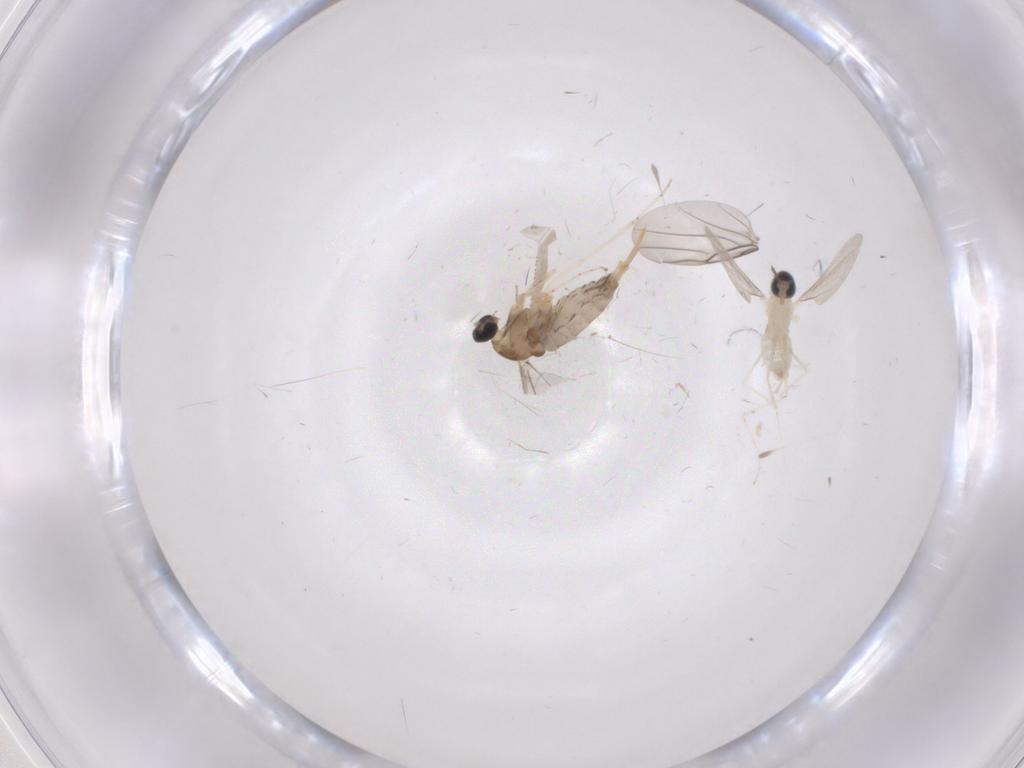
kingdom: Animalia
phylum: Arthropoda
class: Insecta
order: Diptera
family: Cecidomyiidae
